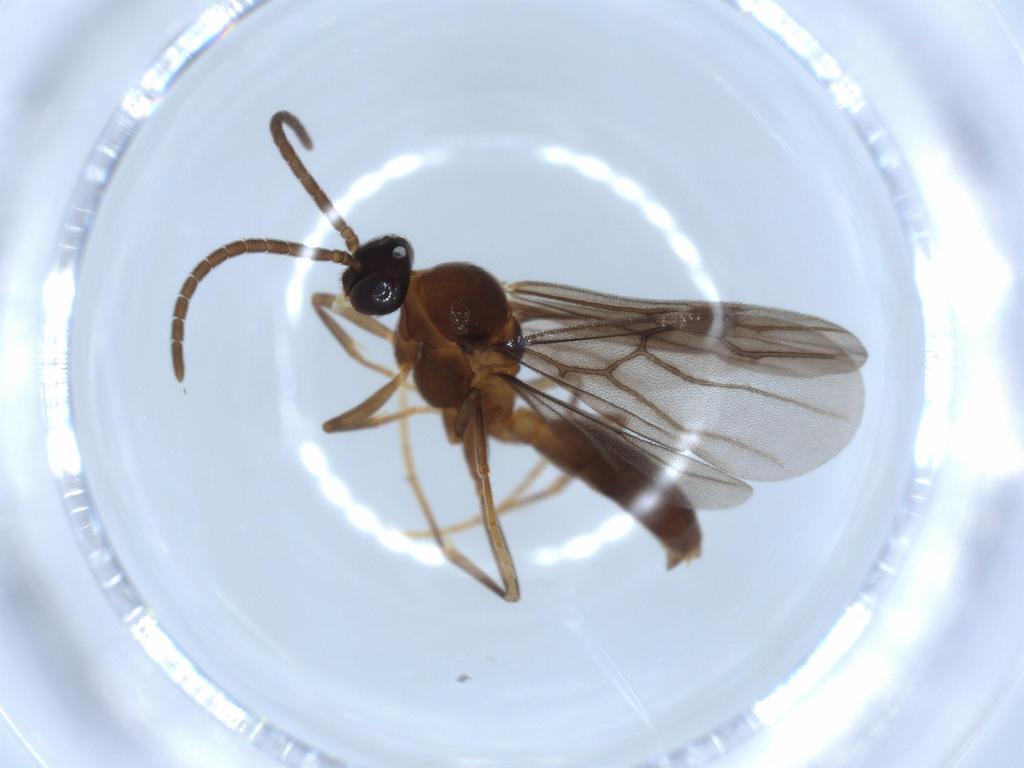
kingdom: Animalia
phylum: Arthropoda
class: Insecta
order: Hymenoptera
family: Formicidae
